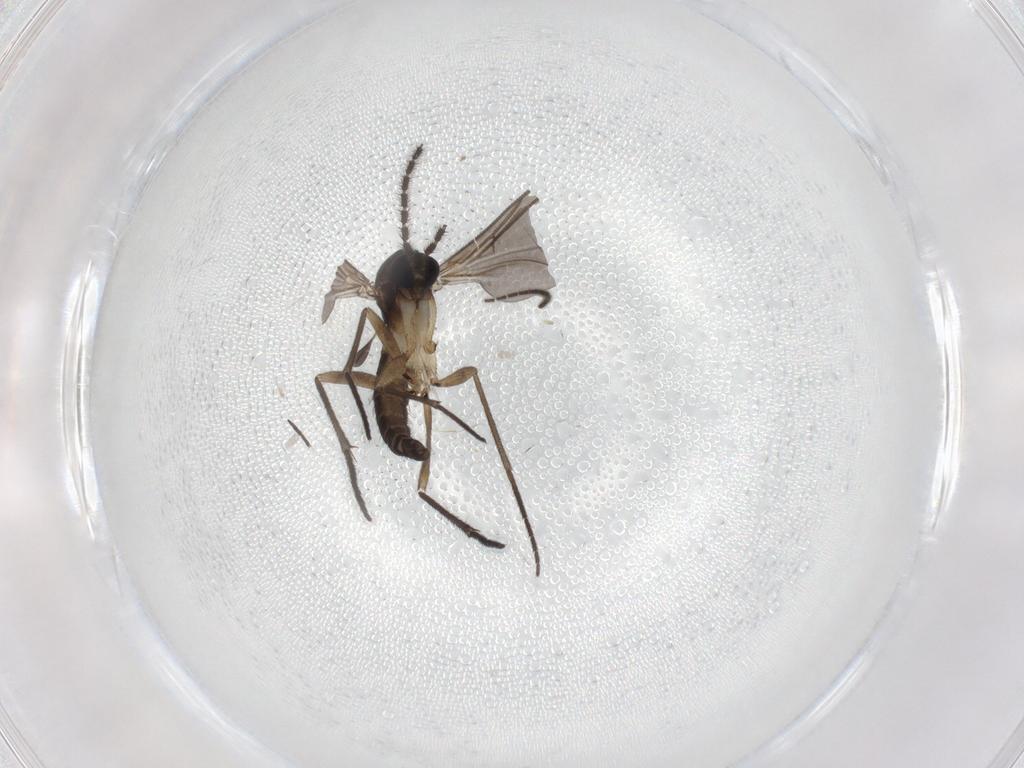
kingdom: Animalia
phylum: Arthropoda
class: Insecta
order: Diptera
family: Sciaridae
